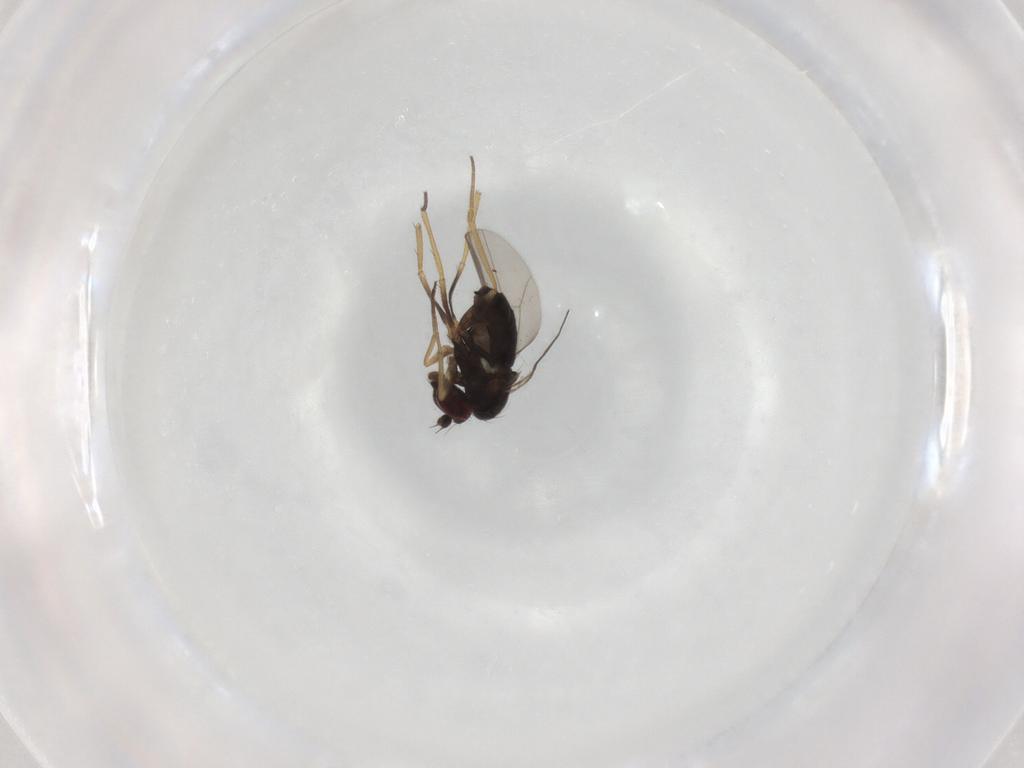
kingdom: Animalia
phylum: Arthropoda
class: Insecta
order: Diptera
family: Dolichopodidae
